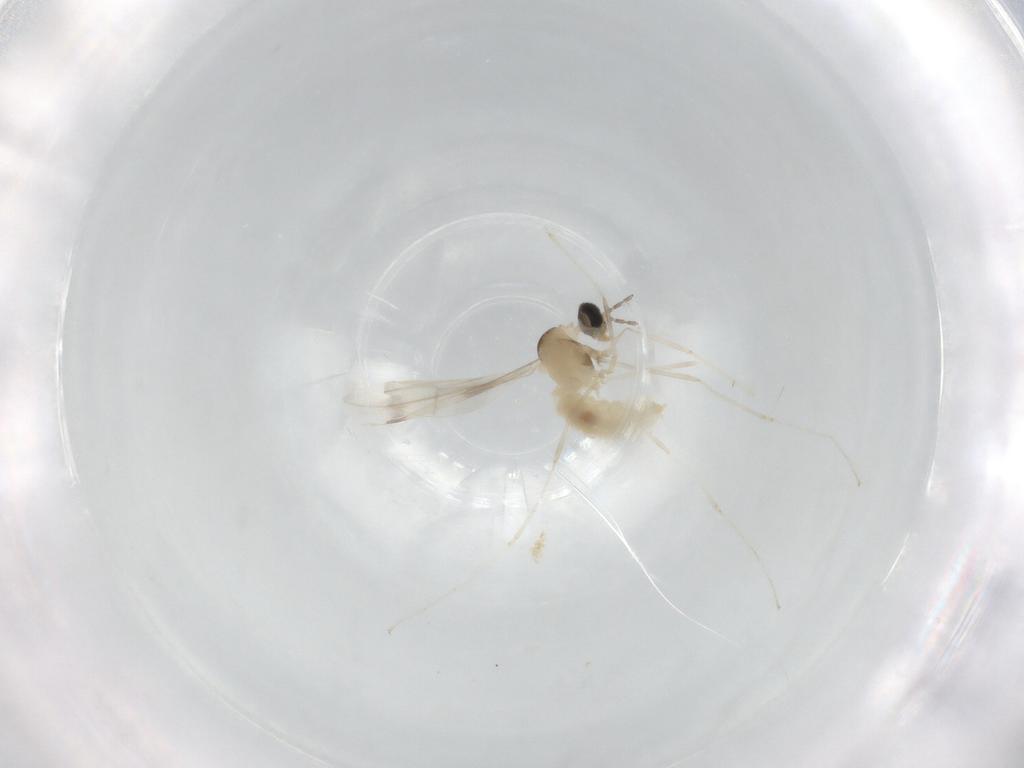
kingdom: Animalia
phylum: Arthropoda
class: Insecta
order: Diptera
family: Cecidomyiidae
